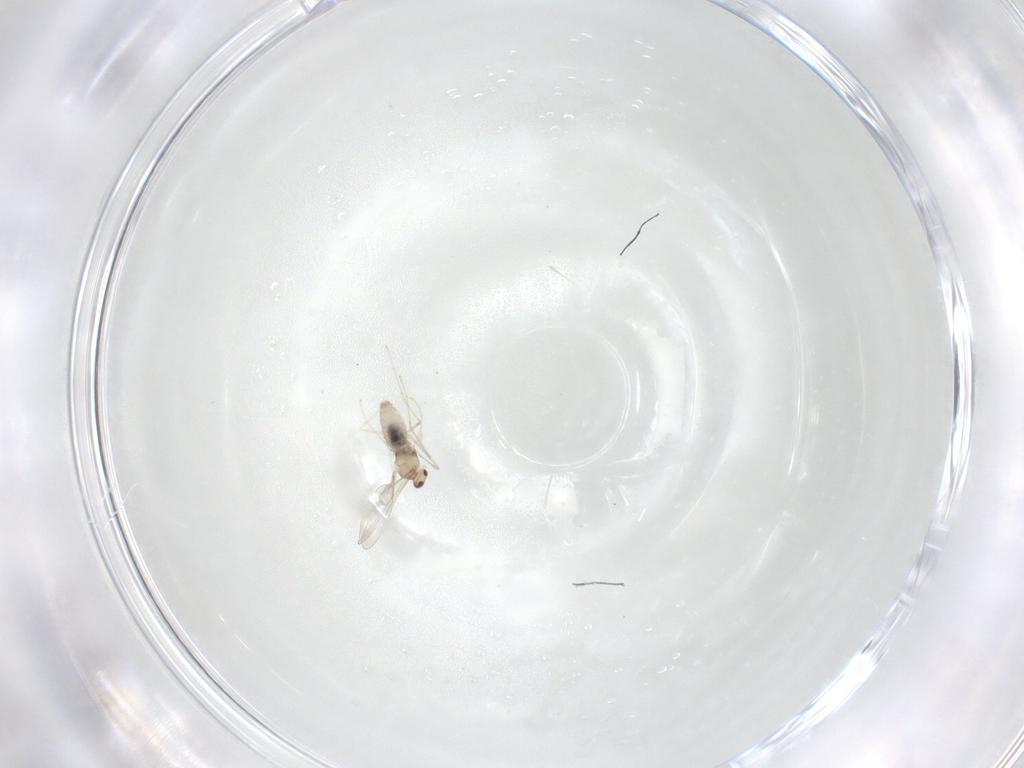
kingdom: Animalia
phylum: Arthropoda
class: Insecta
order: Diptera
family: Cecidomyiidae
